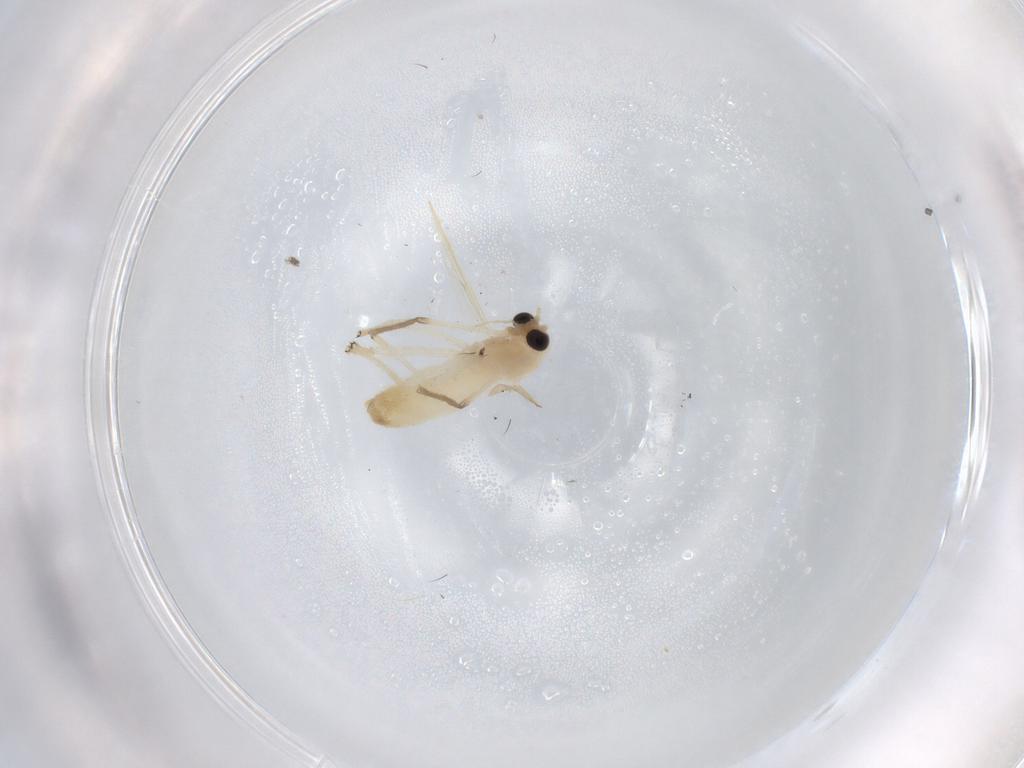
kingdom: Animalia
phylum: Arthropoda
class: Insecta
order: Diptera
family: Chironomidae
